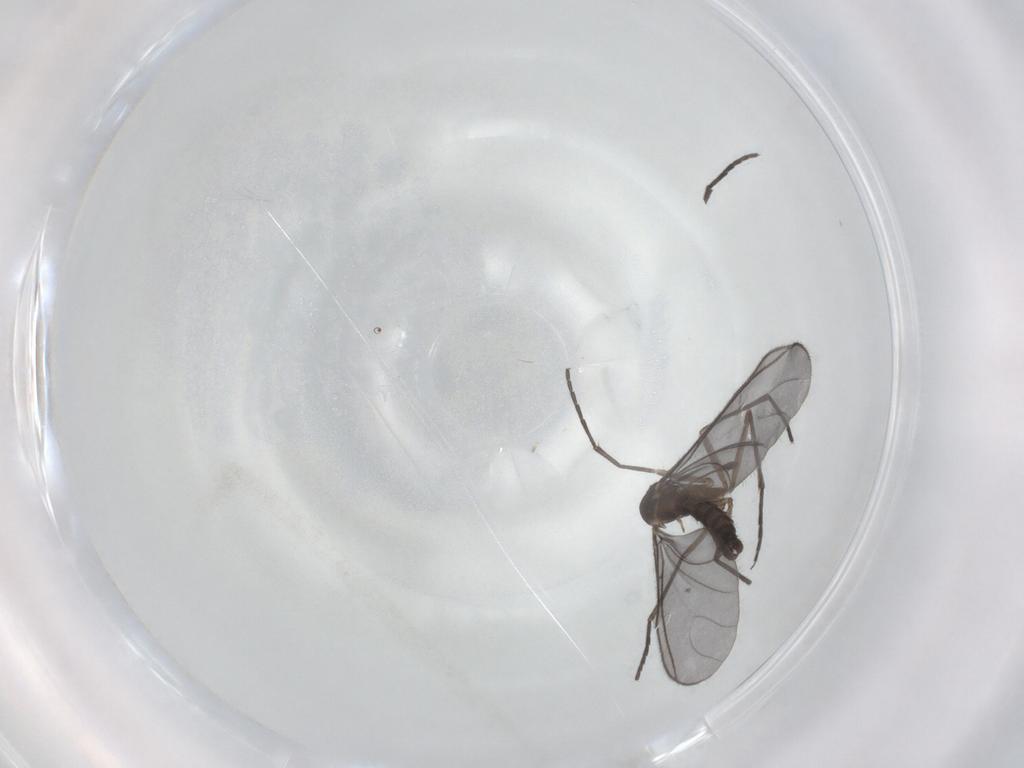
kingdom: Animalia
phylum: Arthropoda
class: Insecta
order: Diptera
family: Sciaridae
